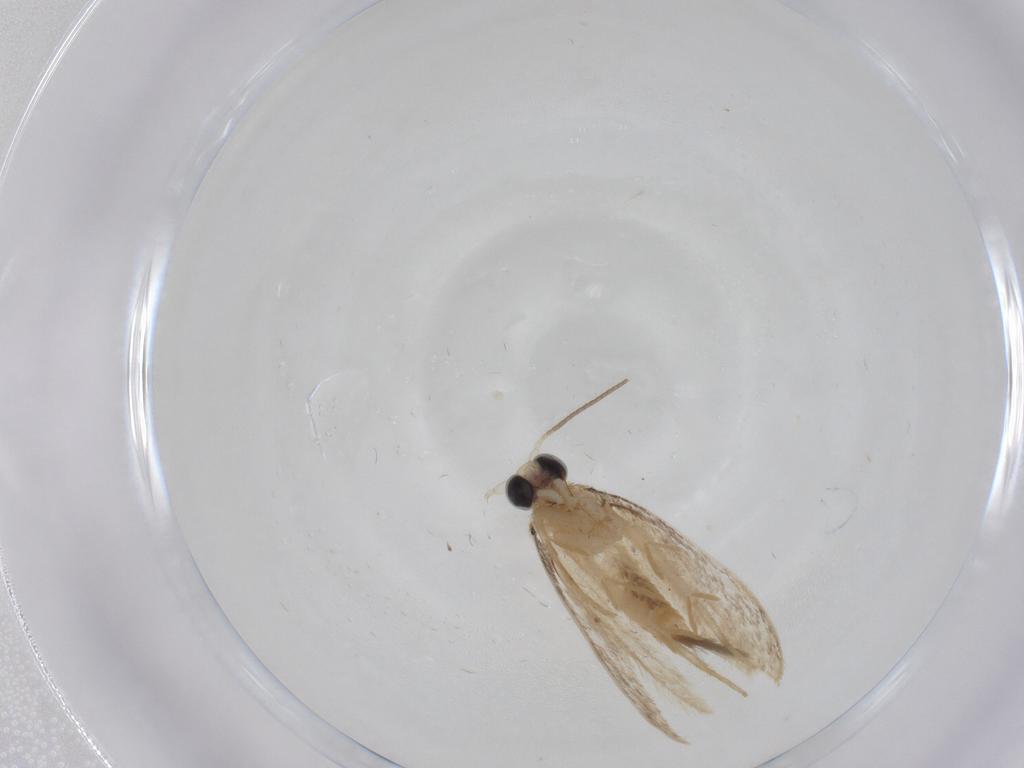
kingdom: Animalia
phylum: Arthropoda
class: Insecta
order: Lepidoptera
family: Psychidae
